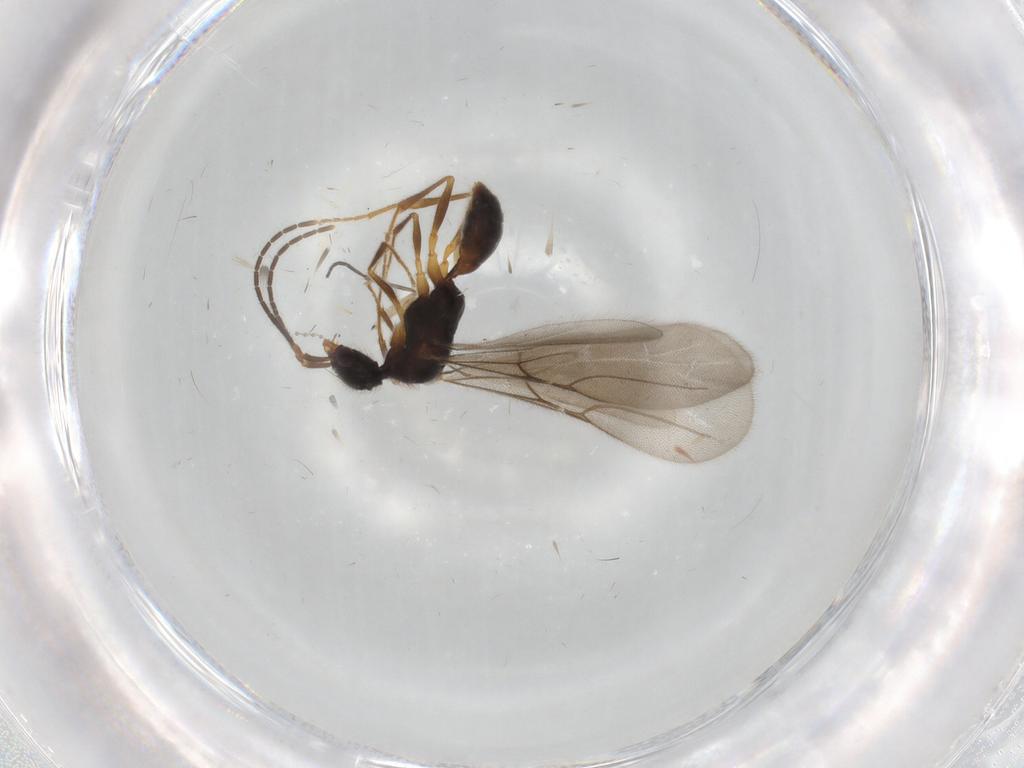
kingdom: Animalia
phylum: Arthropoda
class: Insecta
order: Hymenoptera
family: Bethylidae
